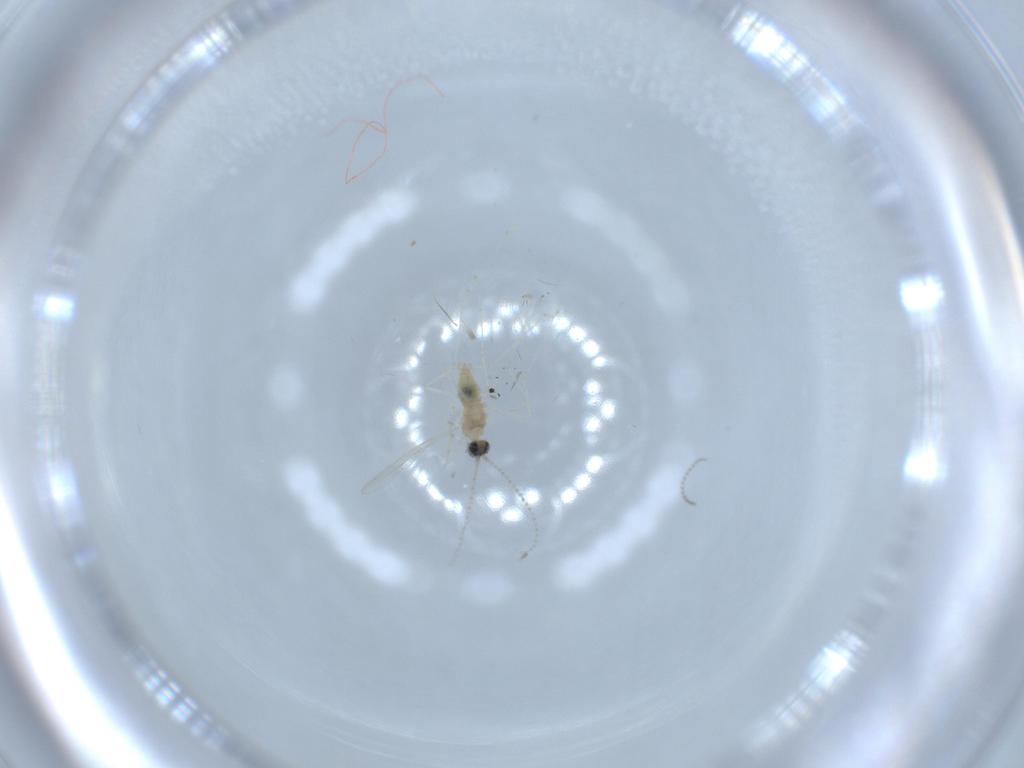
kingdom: Animalia
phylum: Arthropoda
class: Insecta
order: Diptera
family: Cecidomyiidae
